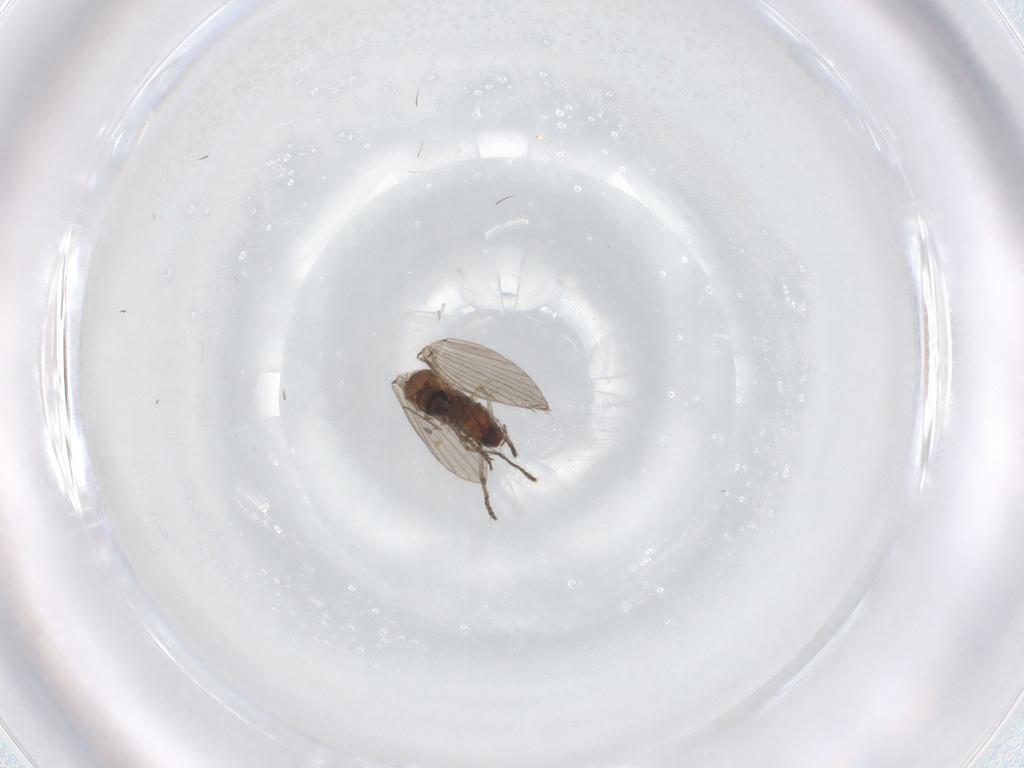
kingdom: Animalia
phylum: Arthropoda
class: Insecta
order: Diptera
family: Psychodidae
